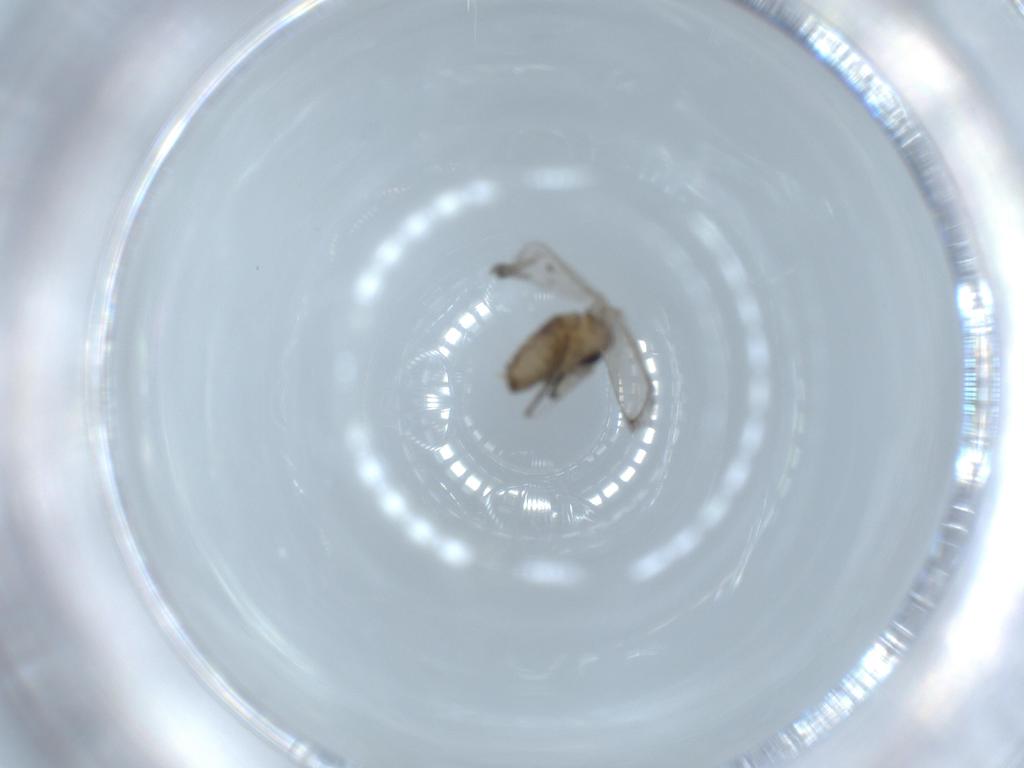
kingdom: Animalia
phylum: Arthropoda
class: Insecta
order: Diptera
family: Psychodidae
